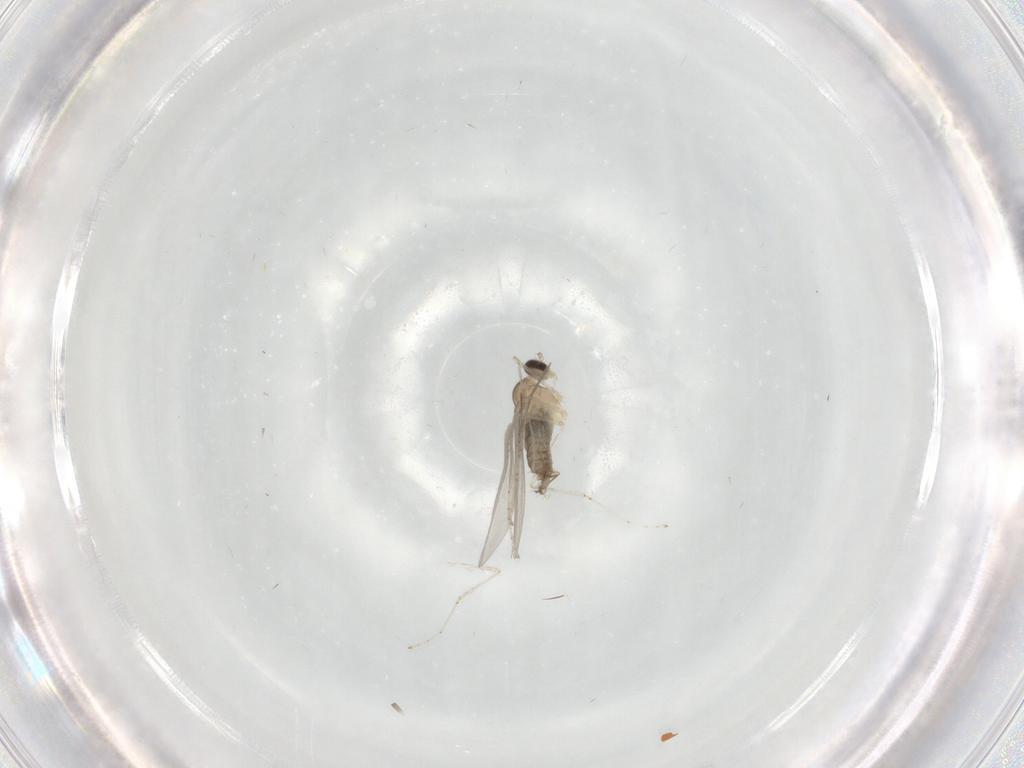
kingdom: Animalia
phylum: Arthropoda
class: Insecta
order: Diptera
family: Cecidomyiidae
